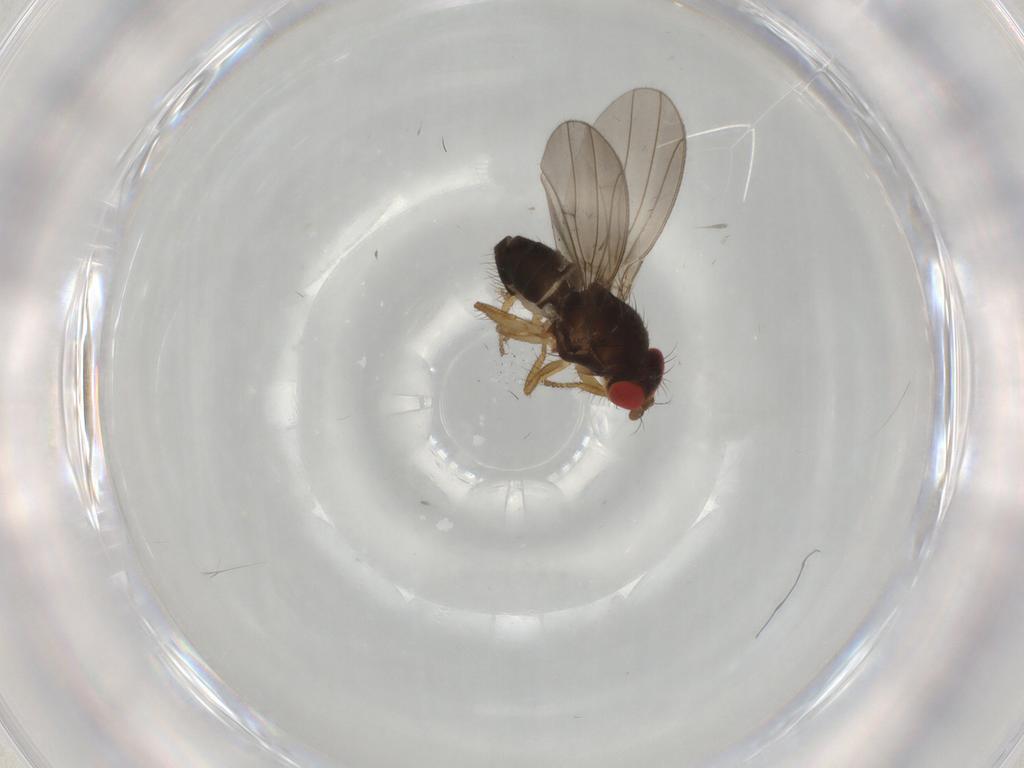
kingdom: Animalia
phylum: Arthropoda
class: Insecta
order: Diptera
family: Drosophilidae
